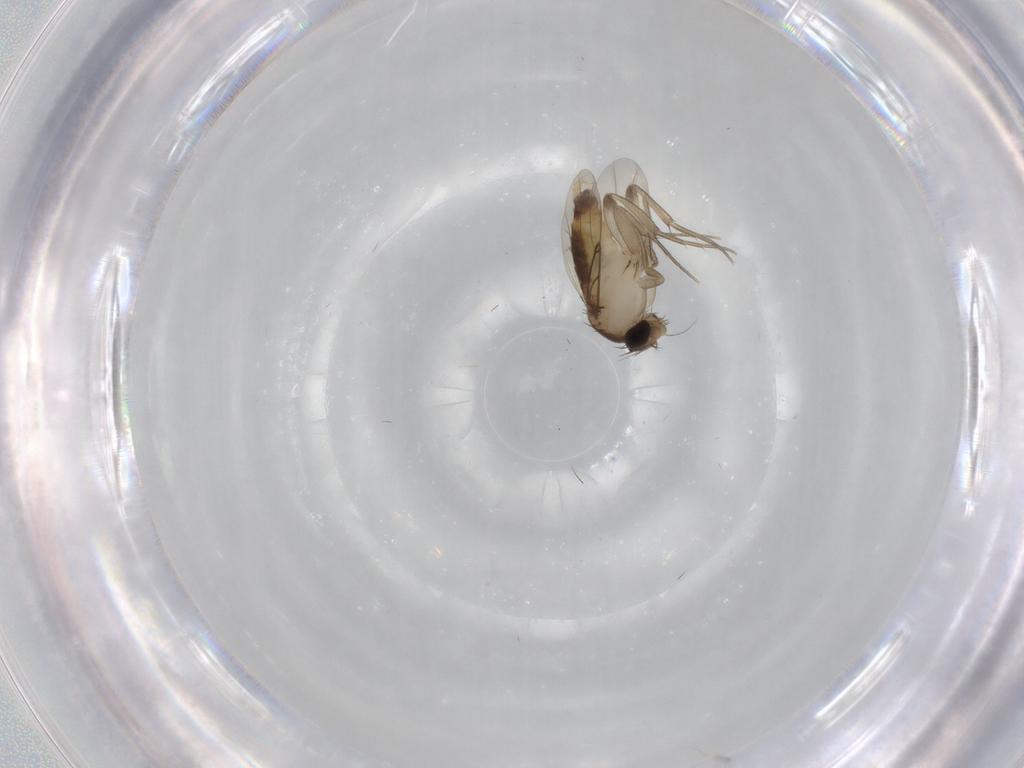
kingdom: Animalia
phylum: Arthropoda
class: Insecta
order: Diptera
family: Phoridae
